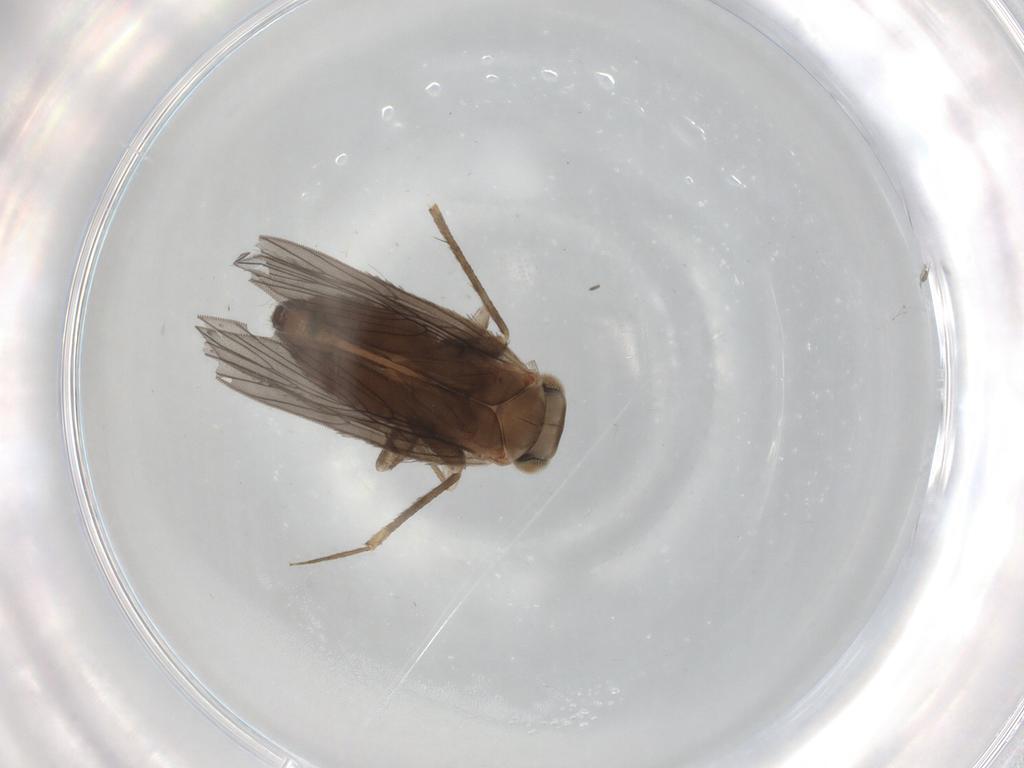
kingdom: Animalia
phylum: Arthropoda
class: Insecta
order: Psocodea
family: Lepidopsocidae
